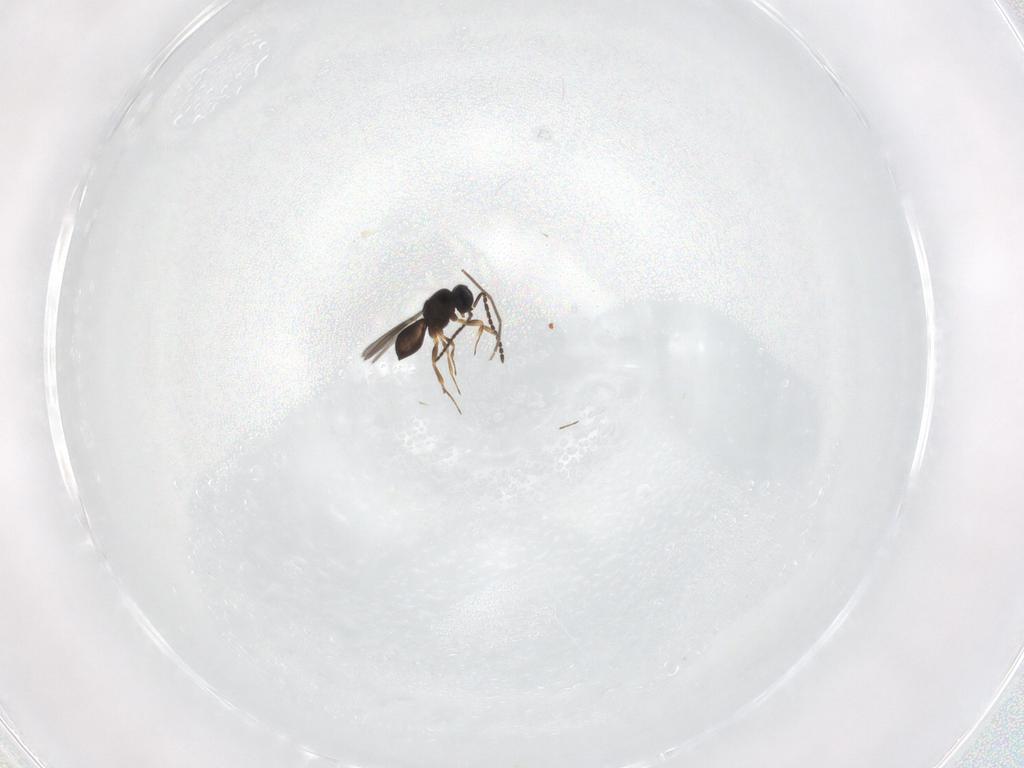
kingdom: Animalia
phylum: Arthropoda
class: Insecta
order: Hymenoptera
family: Scelionidae
